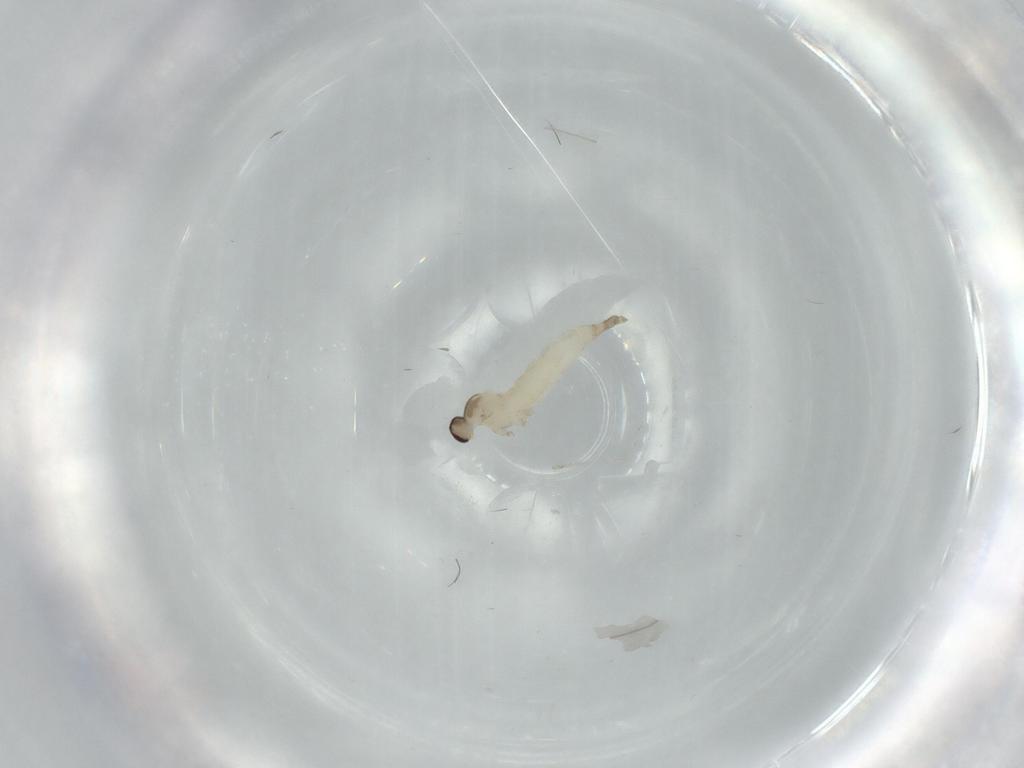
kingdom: Animalia
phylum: Arthropoda
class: Insecta
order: Diptera
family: Cecidomyiidae
